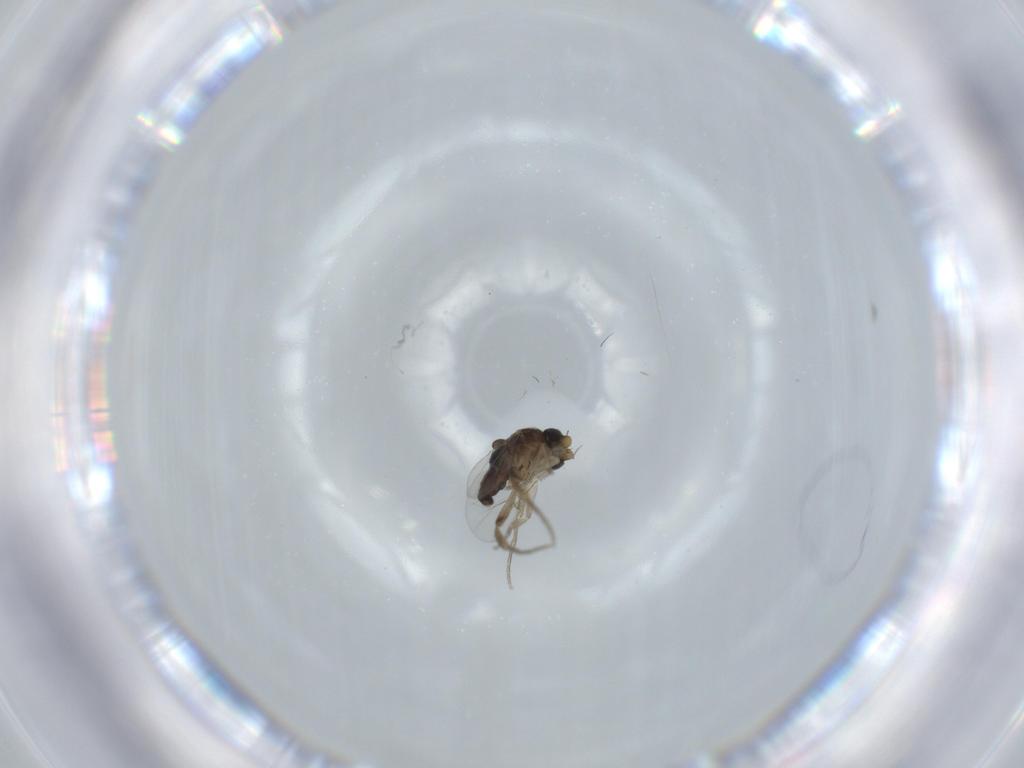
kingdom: Animalia
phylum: Arthropoda
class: Insecta
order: Diptera
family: Phoridae
